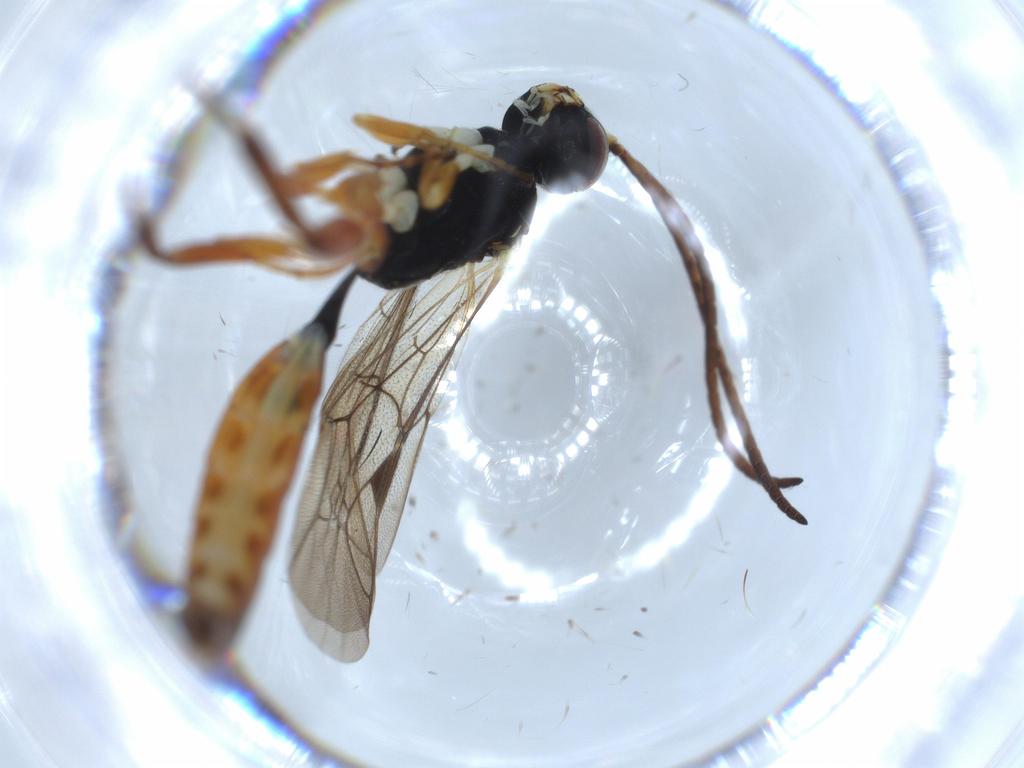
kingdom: Animalia
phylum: Arthropoda
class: Insecta
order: Hymenoptera
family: Ichneumonidae
